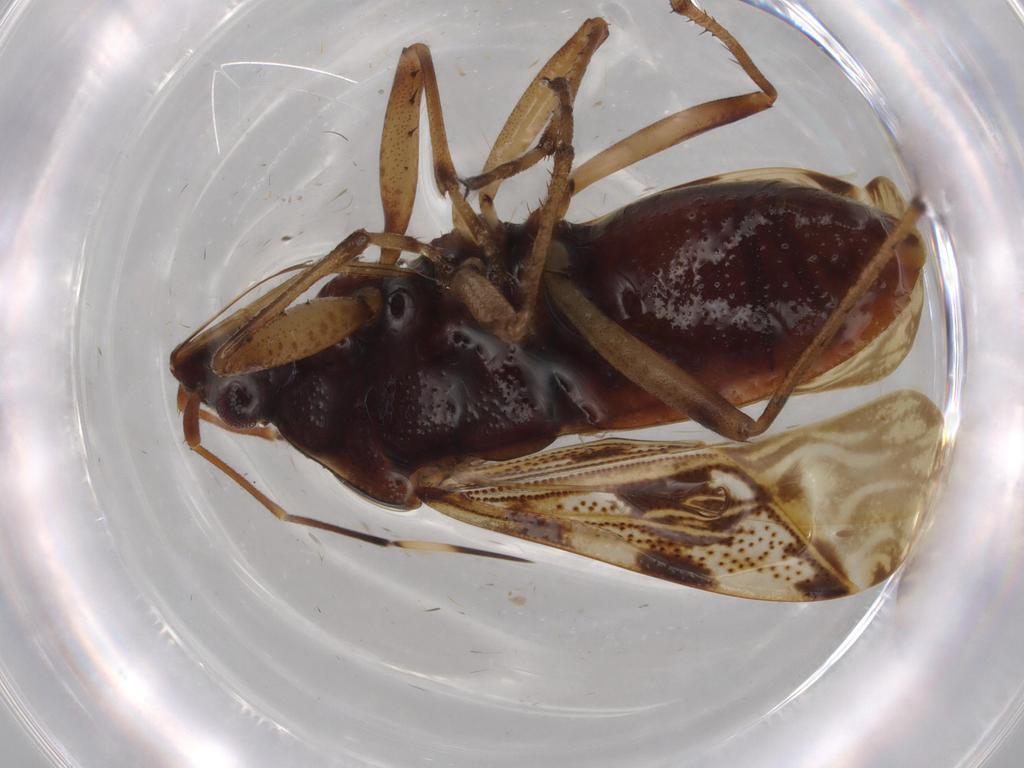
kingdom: Animalia
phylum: Arthropoda
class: Insecta
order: Hemiptera
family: Rhyparochromidae
